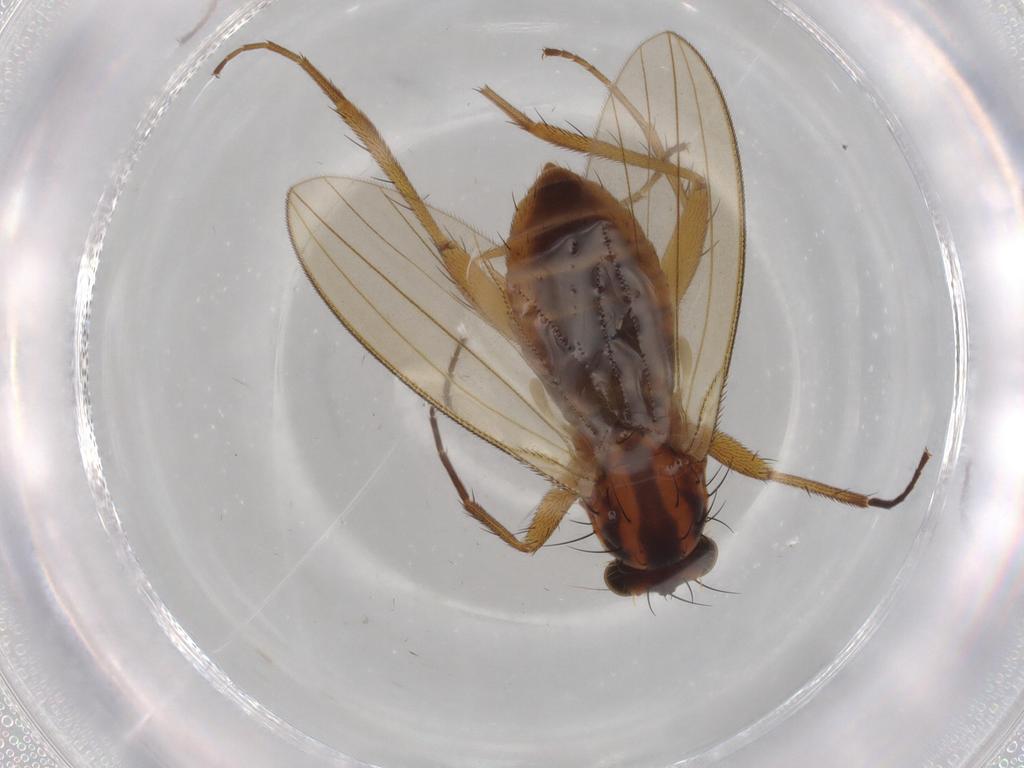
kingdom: Animalia
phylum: Arthropoda
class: Insecta
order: Diptera
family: Lonchopteridae
